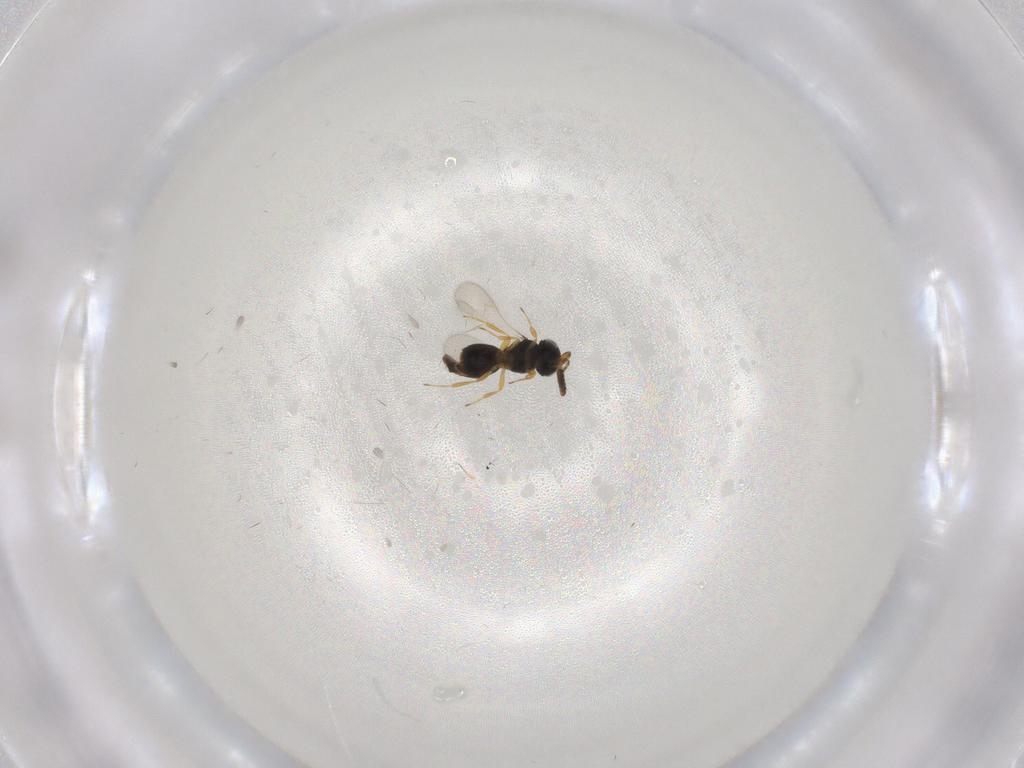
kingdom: Animalia
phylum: Arthropoda
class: Insecta
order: Hymenoptera
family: Scelionidae
